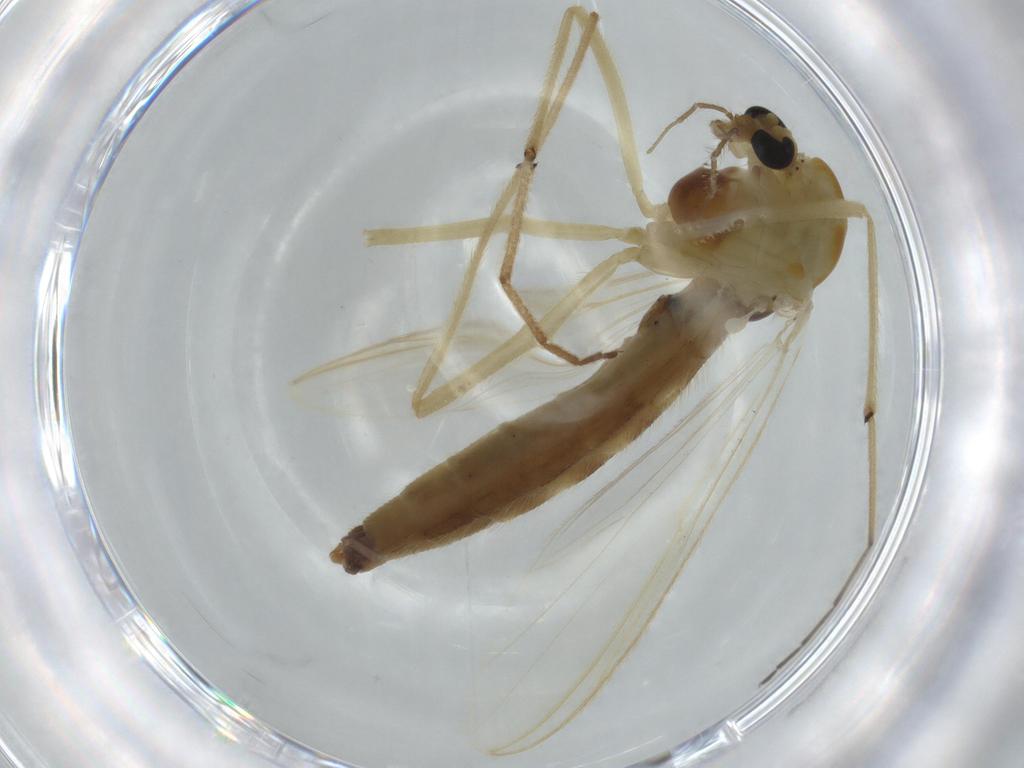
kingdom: Animalia
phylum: Arthropoda
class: Insecta
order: Diptera
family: Chironomidae
